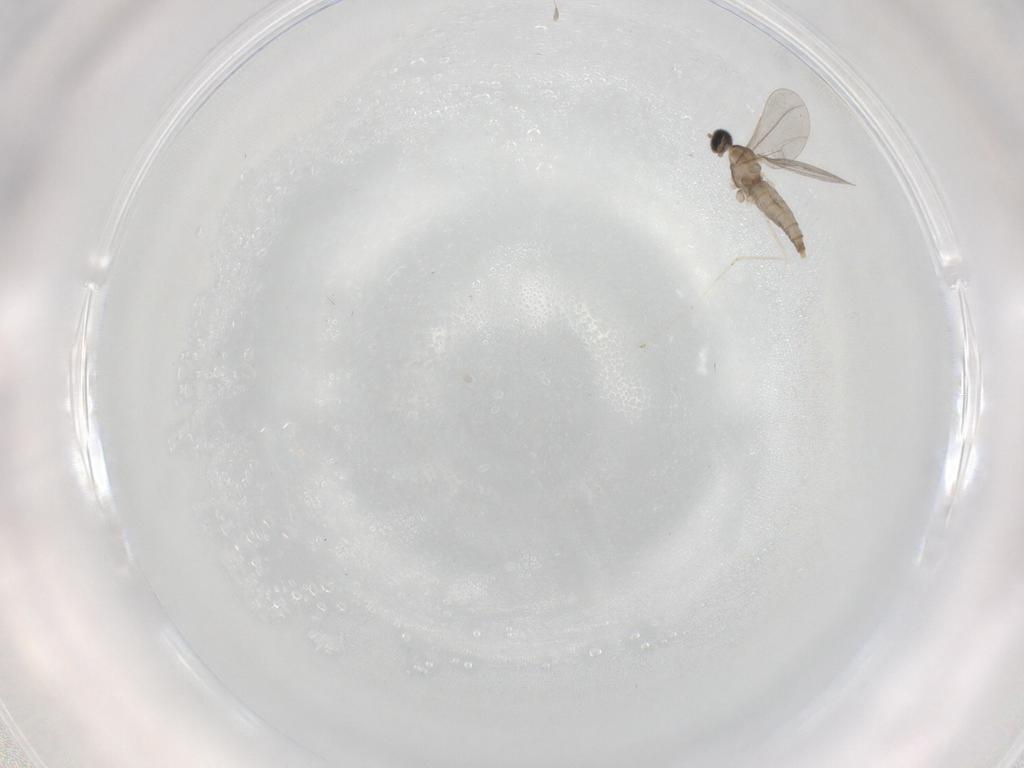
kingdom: Animalia
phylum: Arthropoda
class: Insecta
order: Diptera
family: Cecidomyiidae
